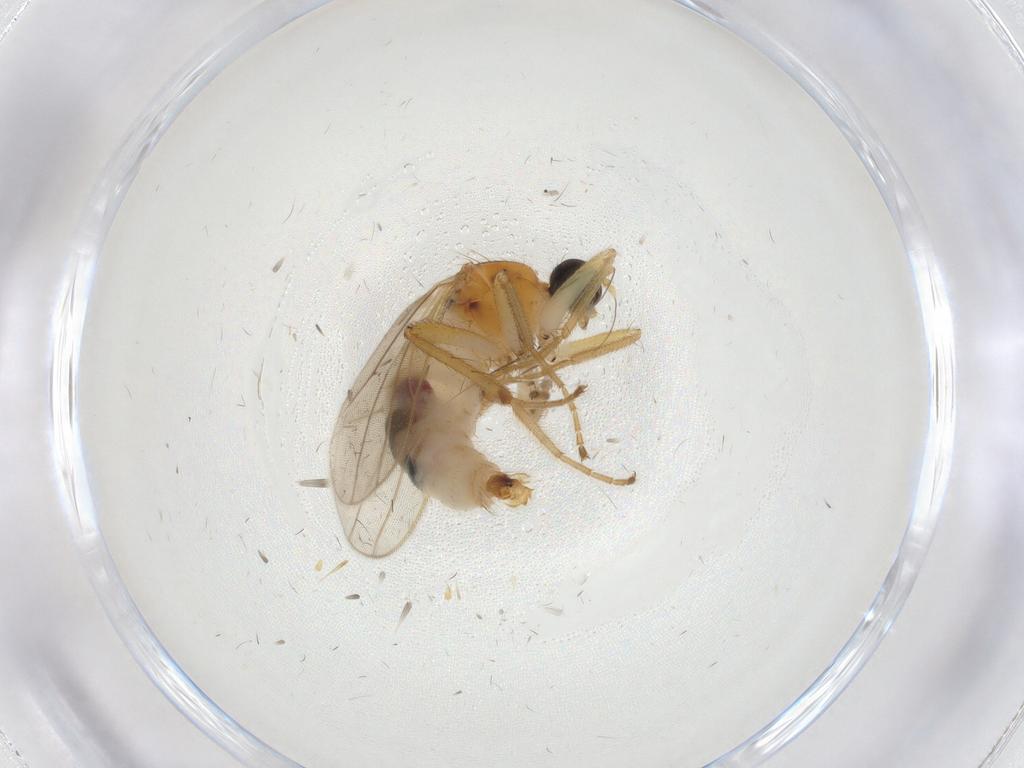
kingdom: Animalia
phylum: Arthropoda
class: Insecta
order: Diptera
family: Hybotidae
